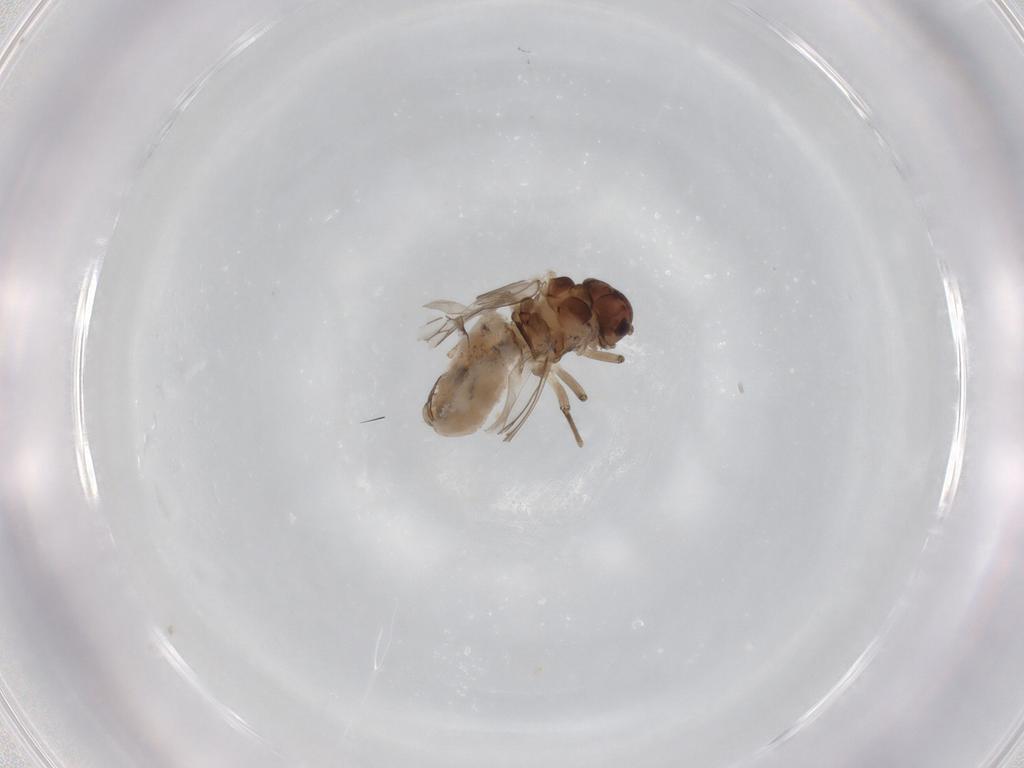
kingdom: Animalia
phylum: Arthropoda
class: Insecta
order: Psocodea
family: Peripsocidae
